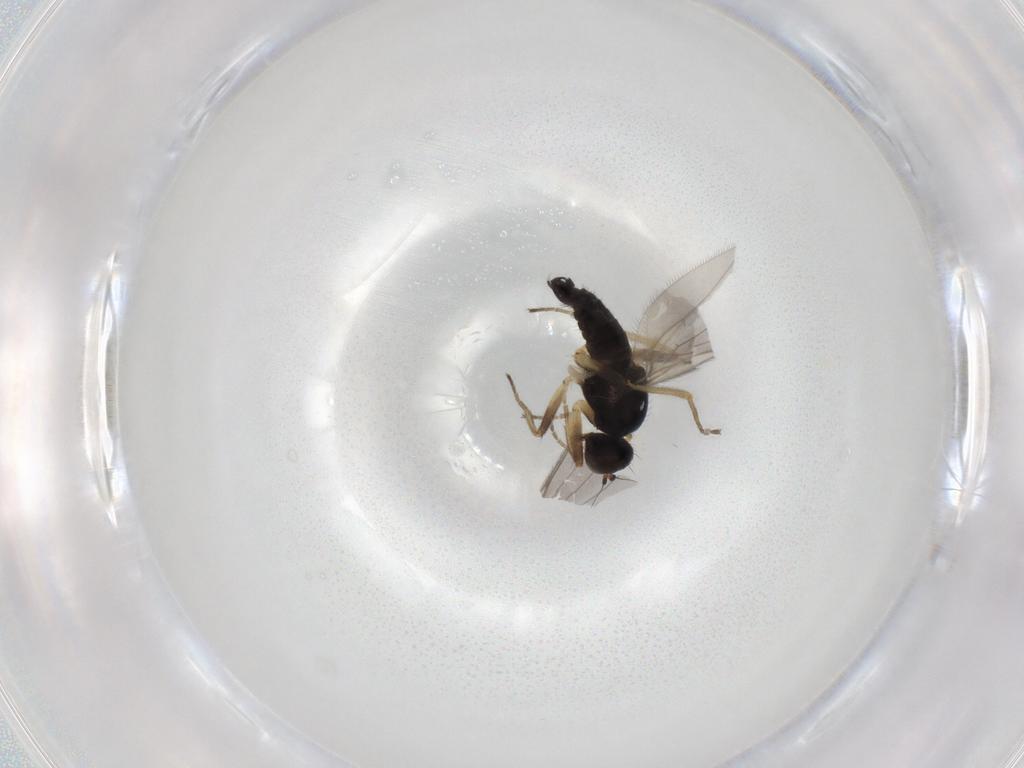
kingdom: Animalia
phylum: Arthropoda
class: Insecta
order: Diptera
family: Hybotidae
